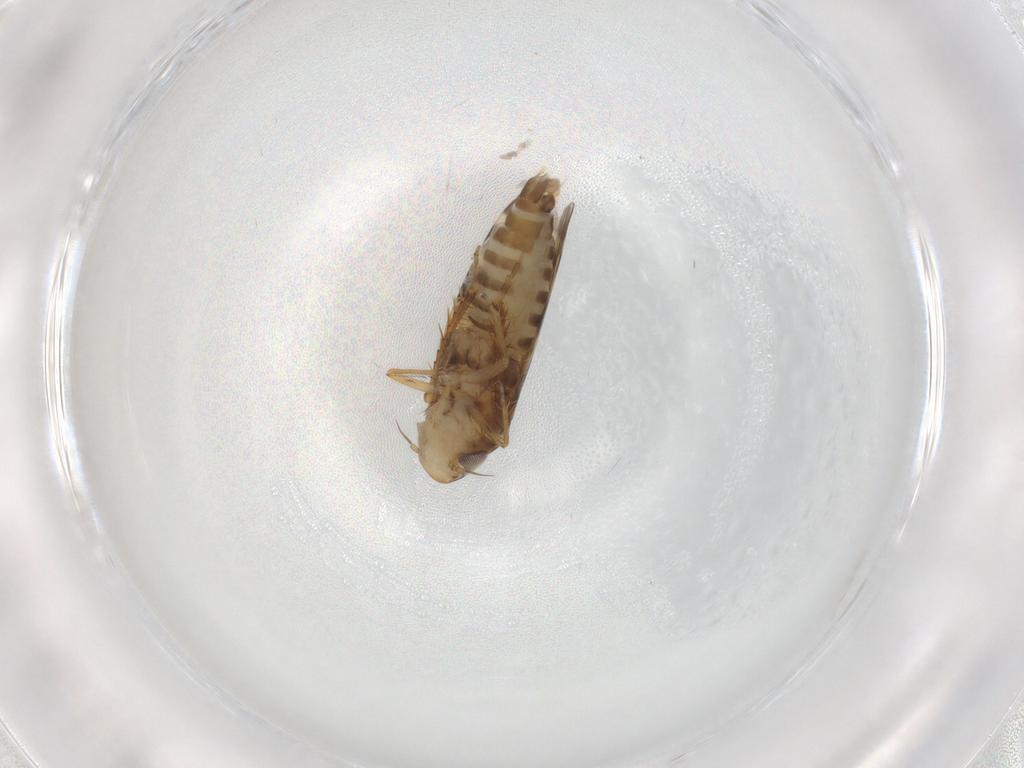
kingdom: Animalia
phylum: Arthropoda
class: Insecta
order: Hemiptera
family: Cicadellidae
